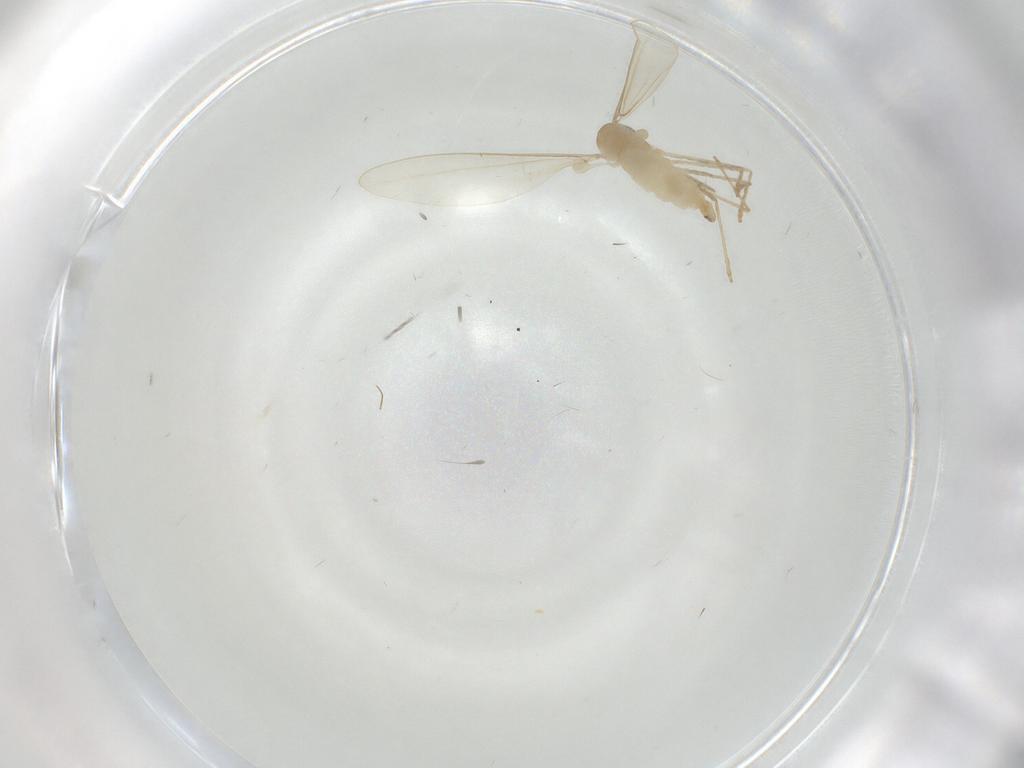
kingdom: Animalia
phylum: Arthropoda
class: Insecta
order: Diptera
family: Cecidomyiidae
